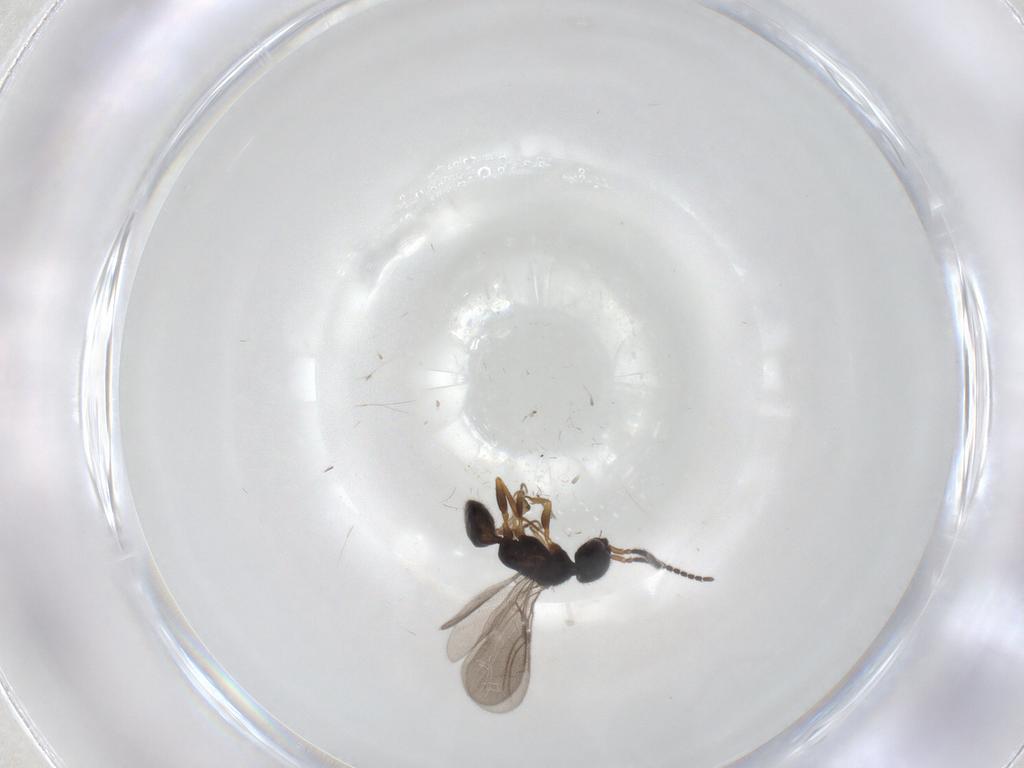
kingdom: Animalia
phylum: Arthropoda
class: Insecta
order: Hymenoptera
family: Bethylidae
